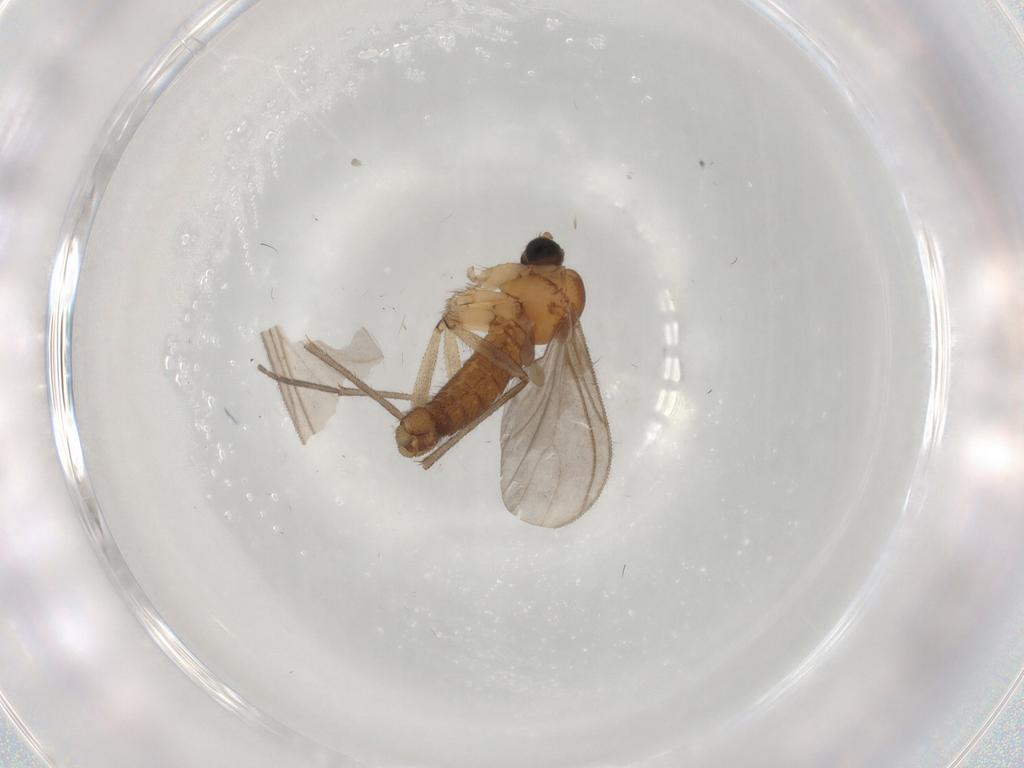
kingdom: Animalia
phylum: Arthropoda
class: Insecta
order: Diptera
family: Sciaridae
